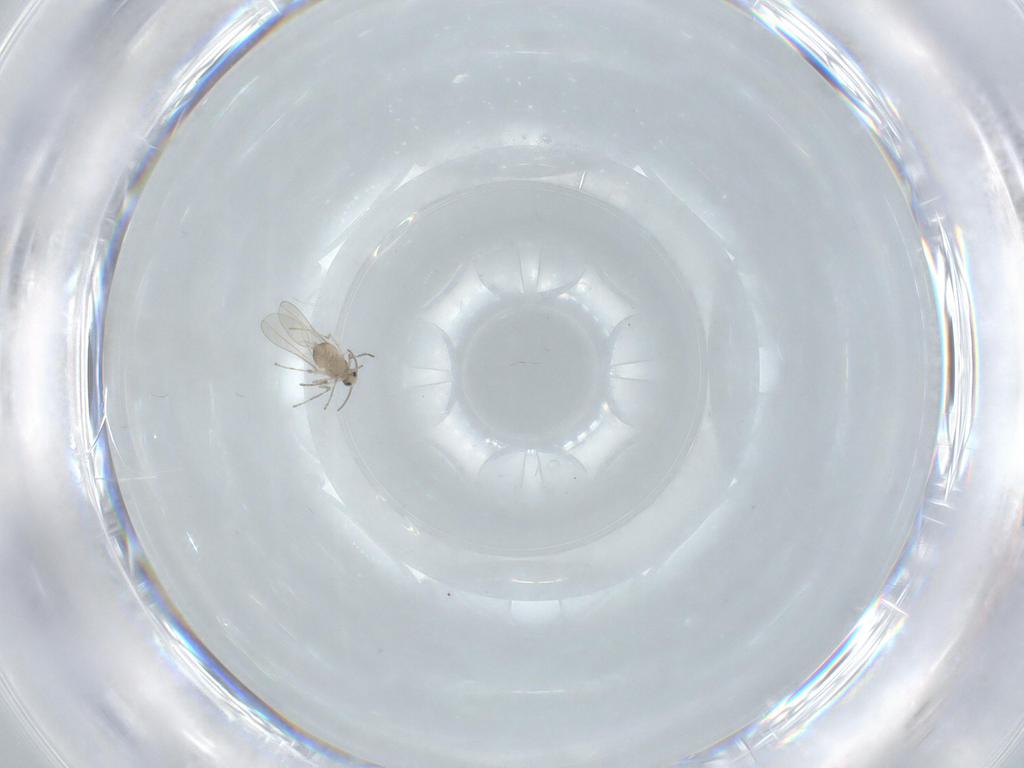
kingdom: Animalia
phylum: Arthropoda
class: Insecta
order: Diptera
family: Cecidomyiidae
